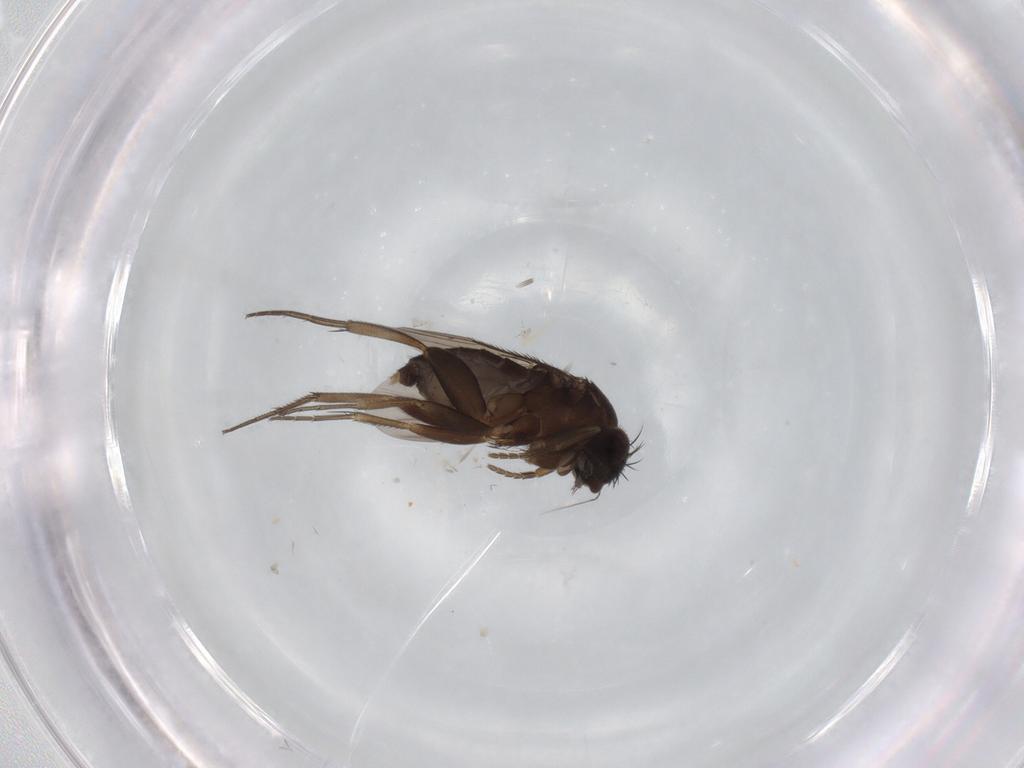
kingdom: Animalia
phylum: Arthropoda
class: Insecta
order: Diptera
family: Phoridae
